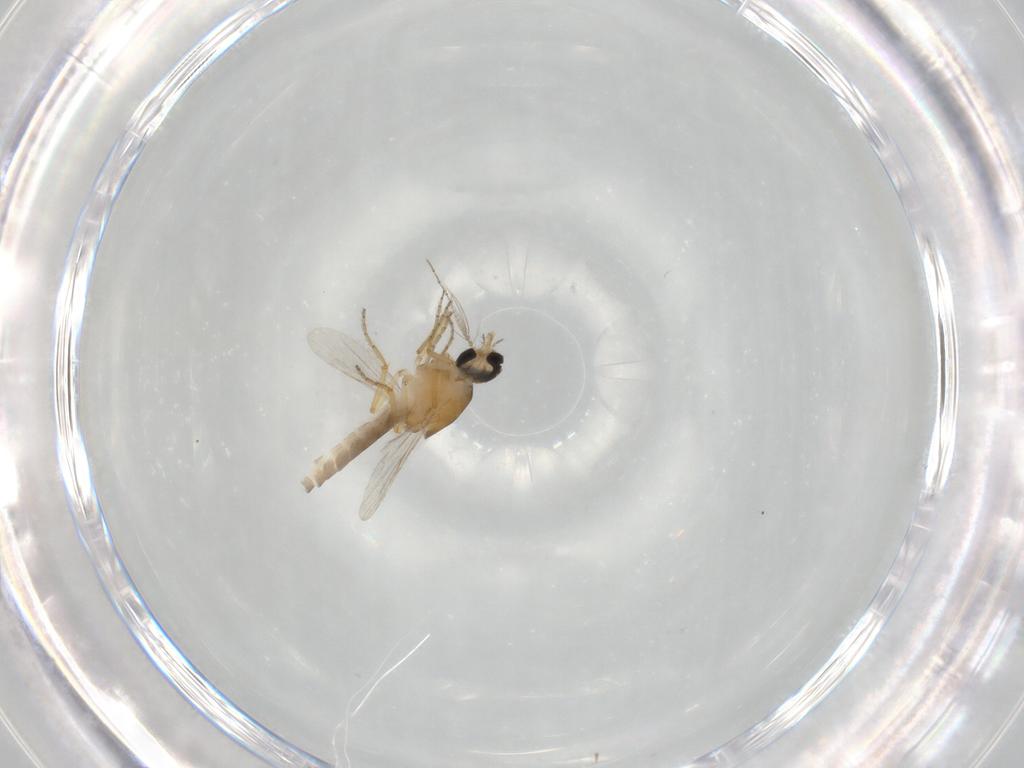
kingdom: Animalia
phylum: Arthropoda
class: Insecta
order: Diptera
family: Ceratopogonidae
